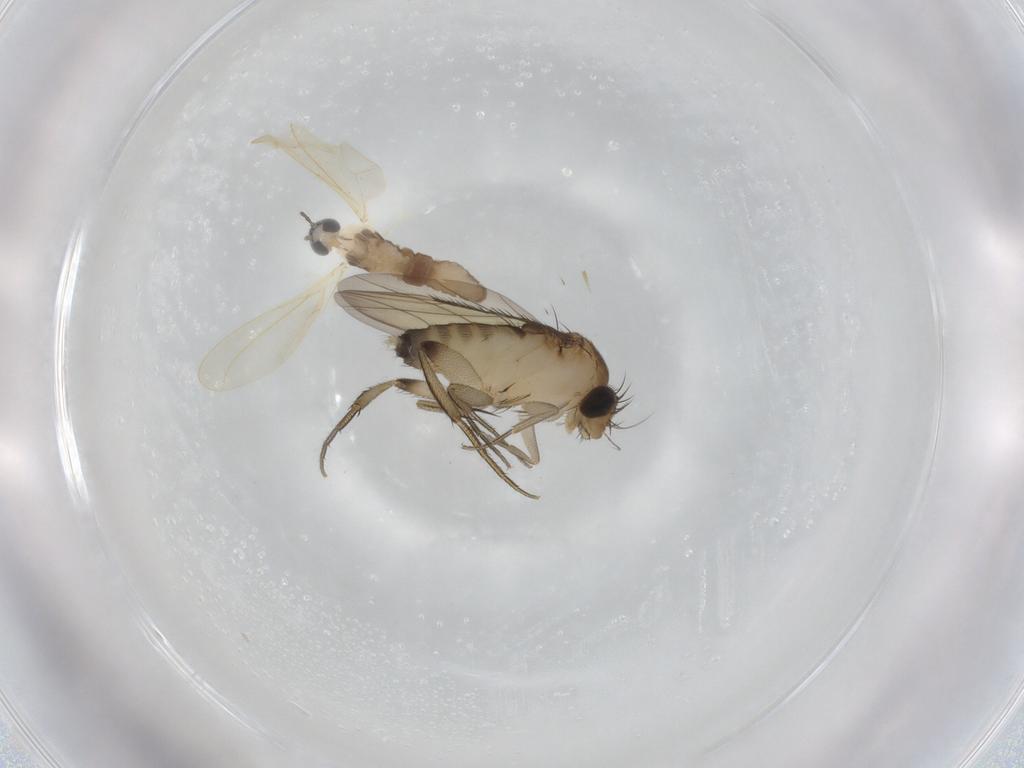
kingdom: Animalia
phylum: Arthropoda
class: Insecta
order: Diptera
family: Cecidomyiidae
